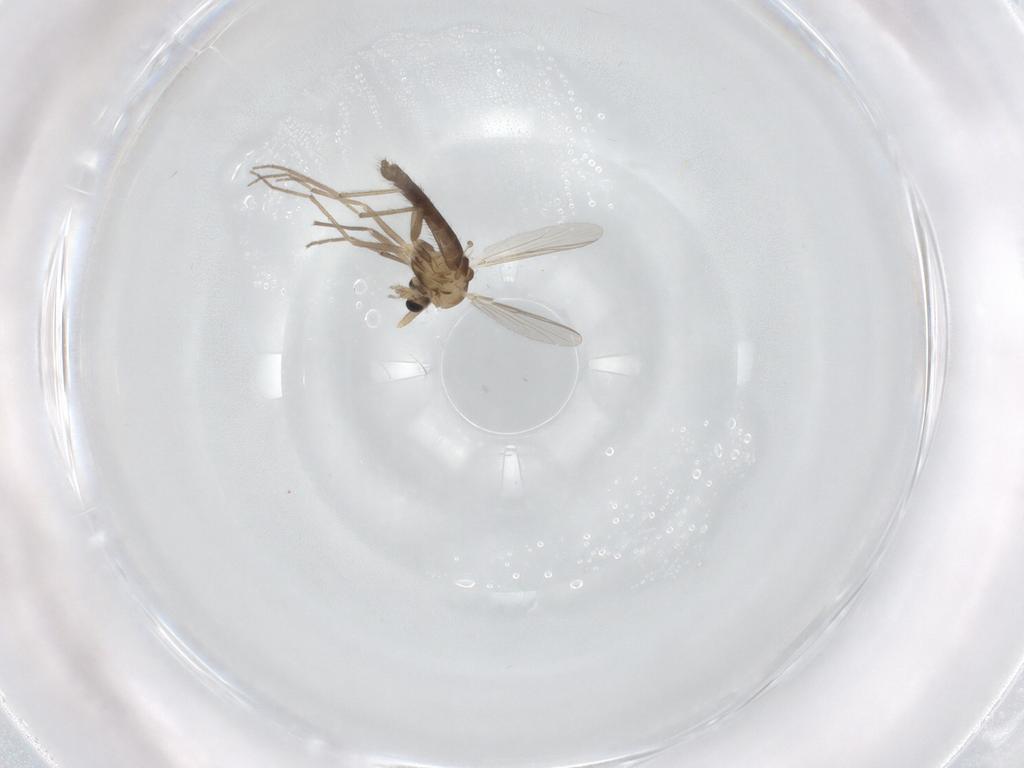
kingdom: Animalia
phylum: Arthropoda
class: Insecta
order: Diptera
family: Chironomidae
